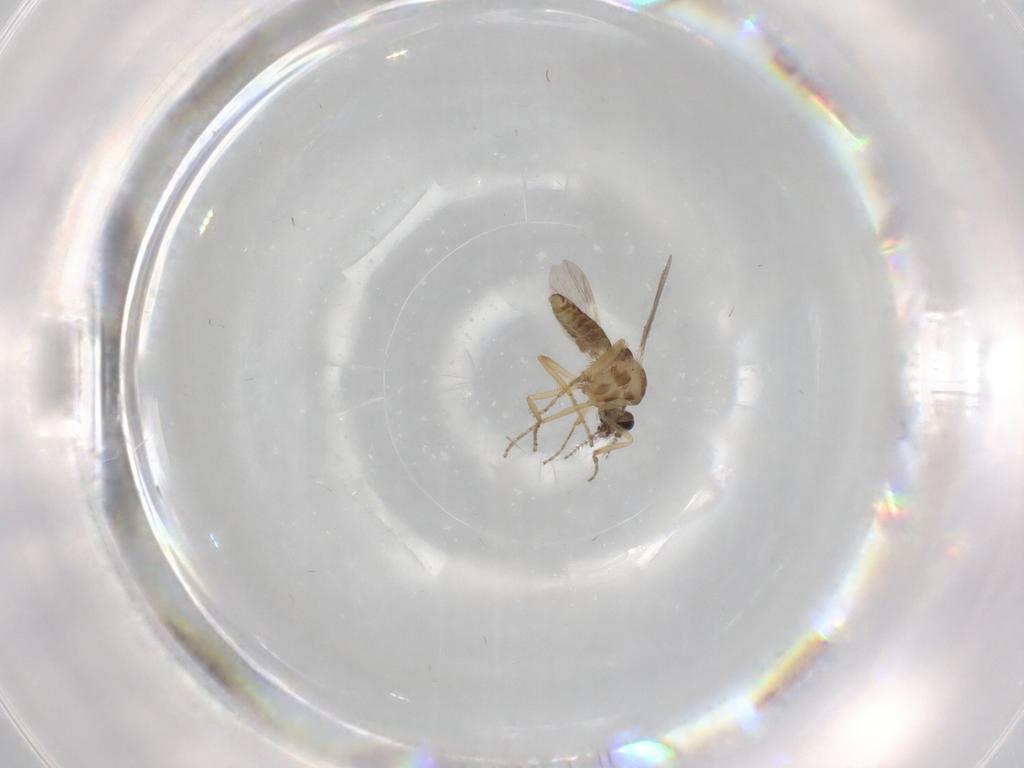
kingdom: Animalia
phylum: Arthropoda
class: Insecta
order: Diptera
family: Ceratopogonidae
